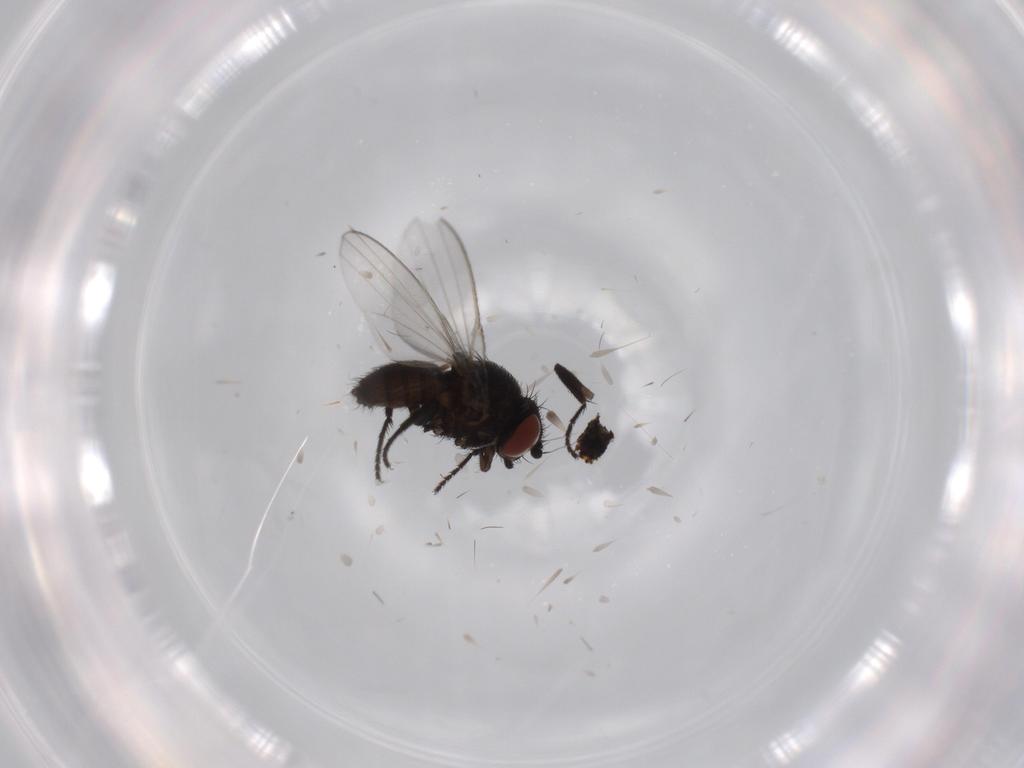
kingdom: Animalia
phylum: Arthropoda
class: Insecta
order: Diptera
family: Milichiidae
